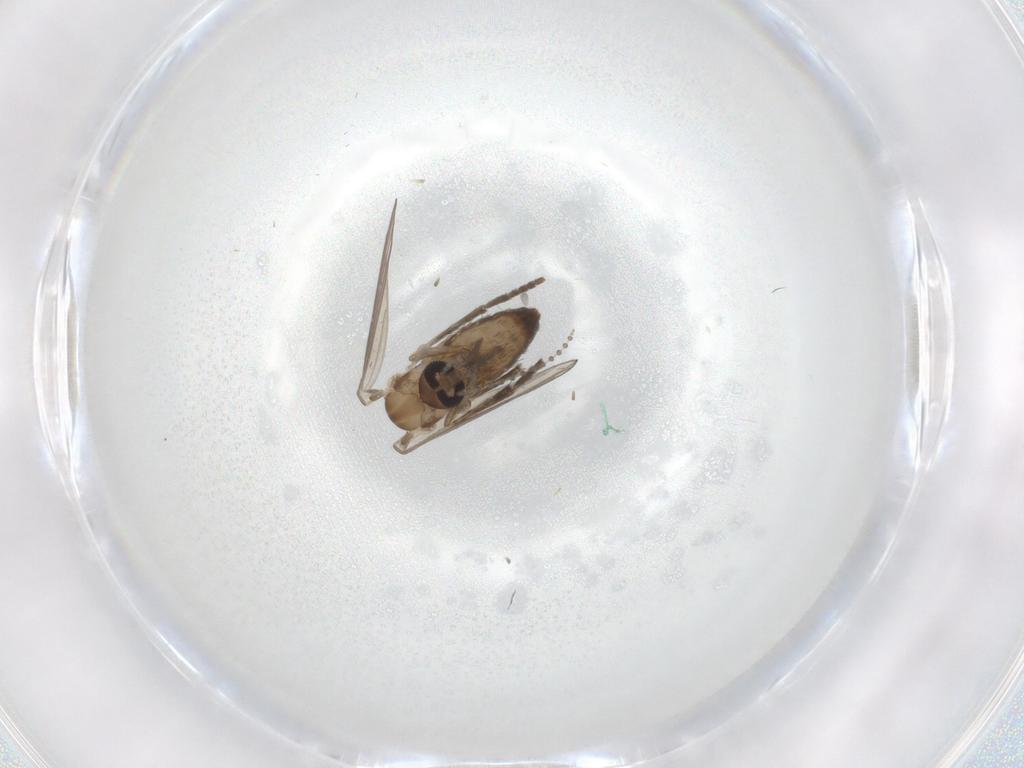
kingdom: Animalia
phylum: Arthropoda
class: Insecta
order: Diptera
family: Psychodidae
